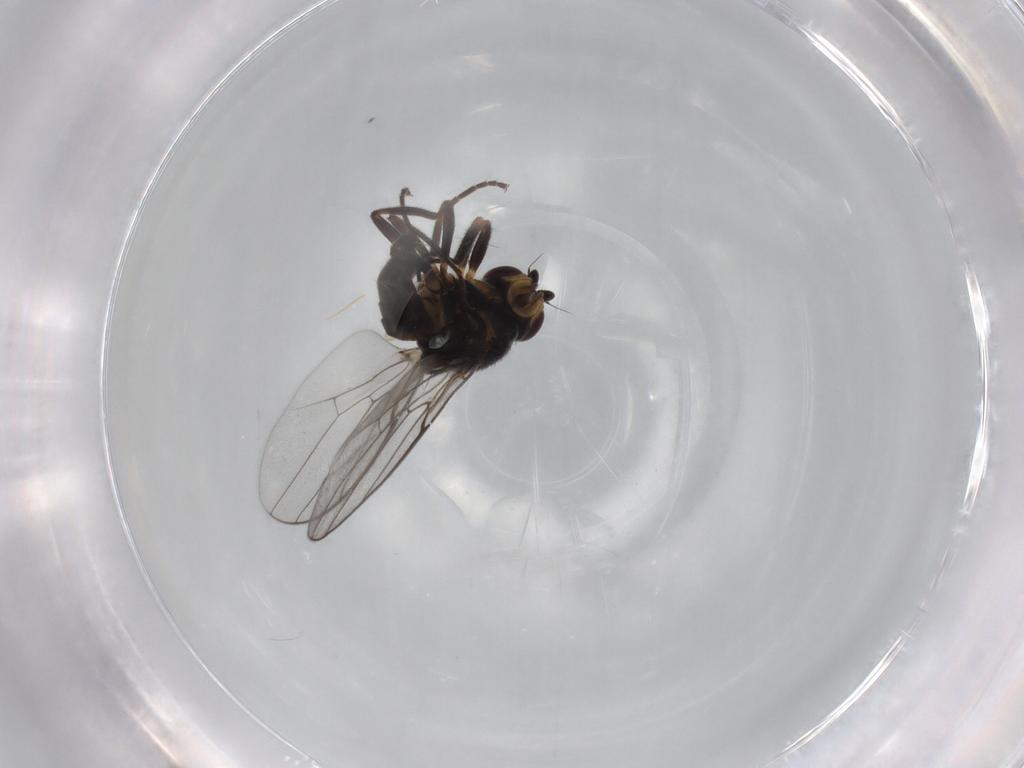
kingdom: Animalia
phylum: Arthropoda
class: Insecta
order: Diptera
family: Chloropidae
